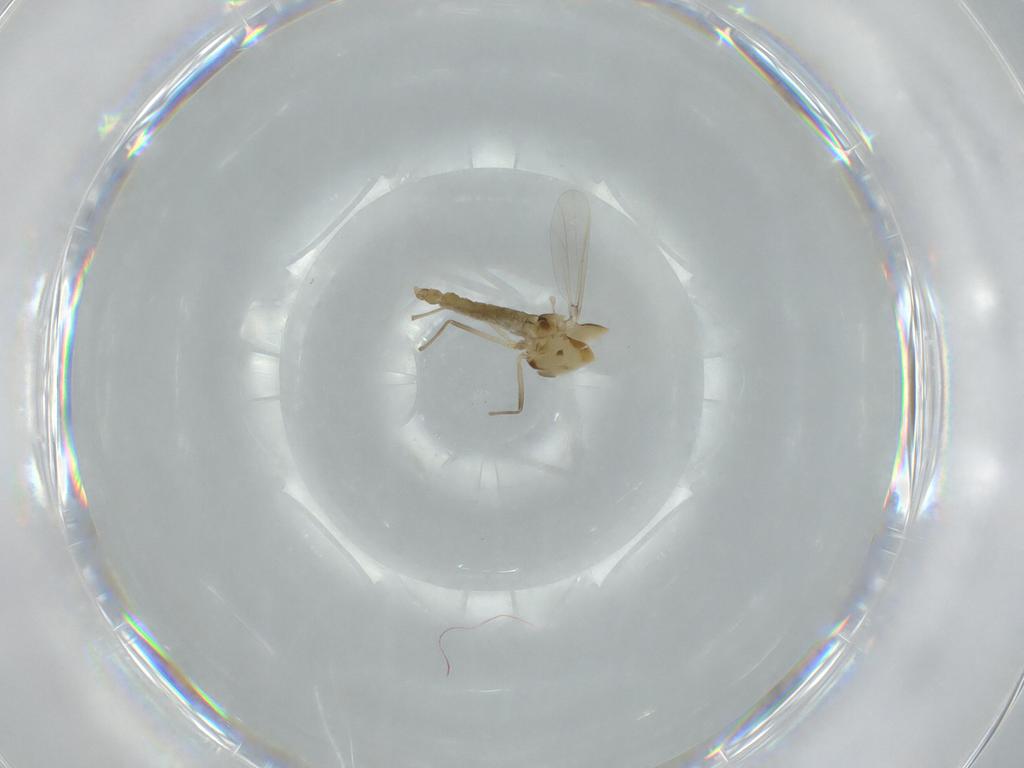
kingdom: Animalia
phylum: Arthropoda
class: Insecta
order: Diptera
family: Chironomidae
